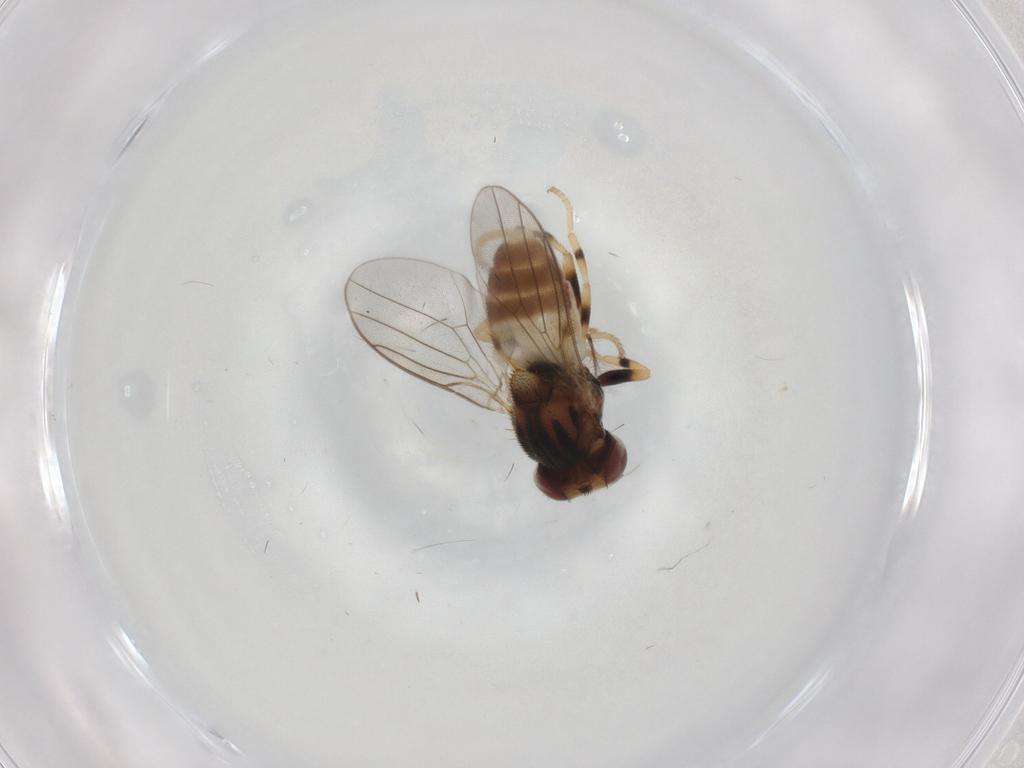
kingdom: Animalia
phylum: Arthropoda
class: Insecta
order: Diptera
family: Chloropidae
